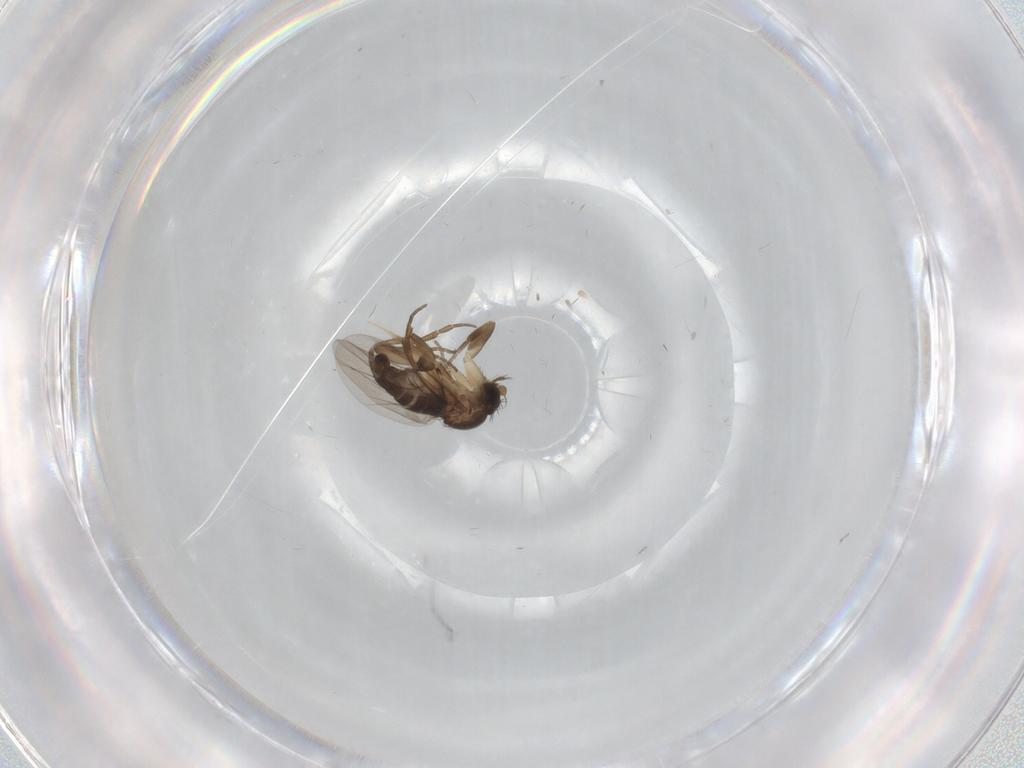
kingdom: Animalia
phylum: Arthropoda
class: Insecta
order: Diptera
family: Phoridae
